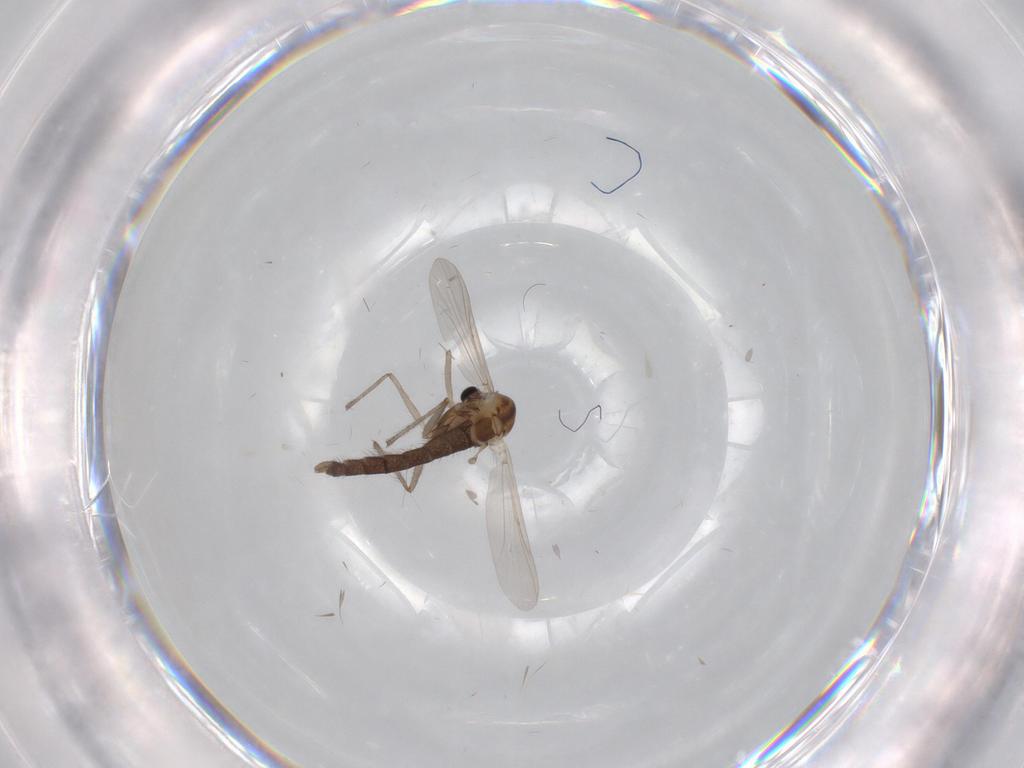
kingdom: Animalia
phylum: Arthropoda
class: Insecta
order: Diptera
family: Chironomidae
